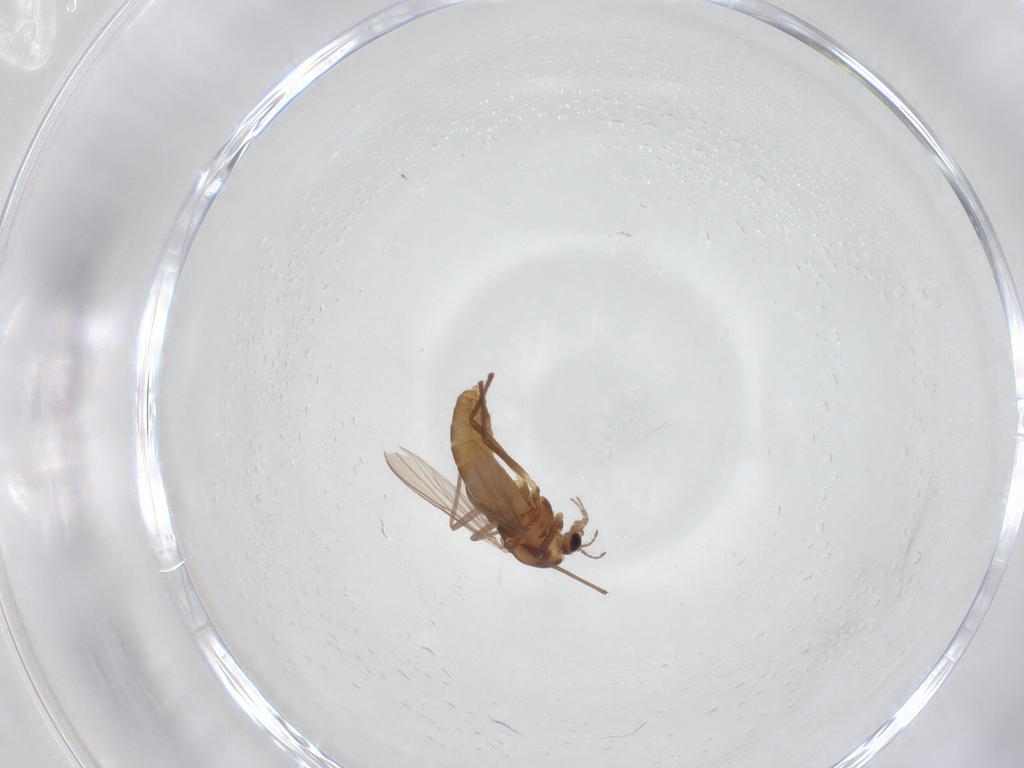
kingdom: Animalia
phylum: Arthropoda
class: Insecta
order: Diptera
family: Chironomidae
